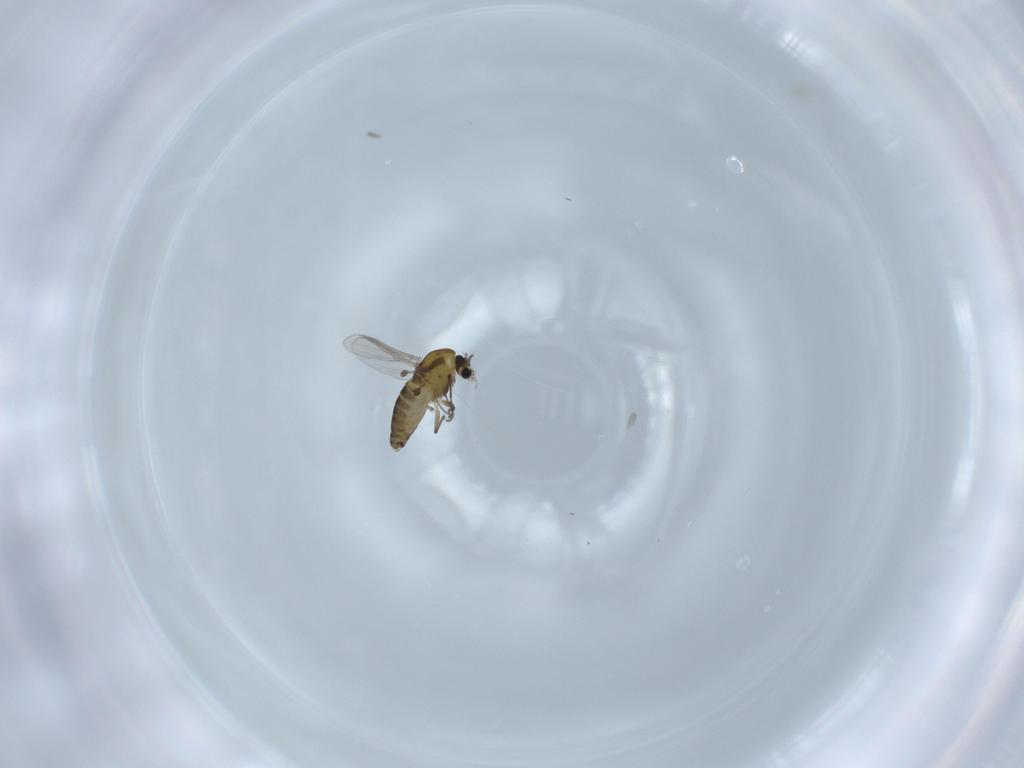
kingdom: Animalia
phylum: Arthropoda
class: Insecta
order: Diptera
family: Chironomidae
